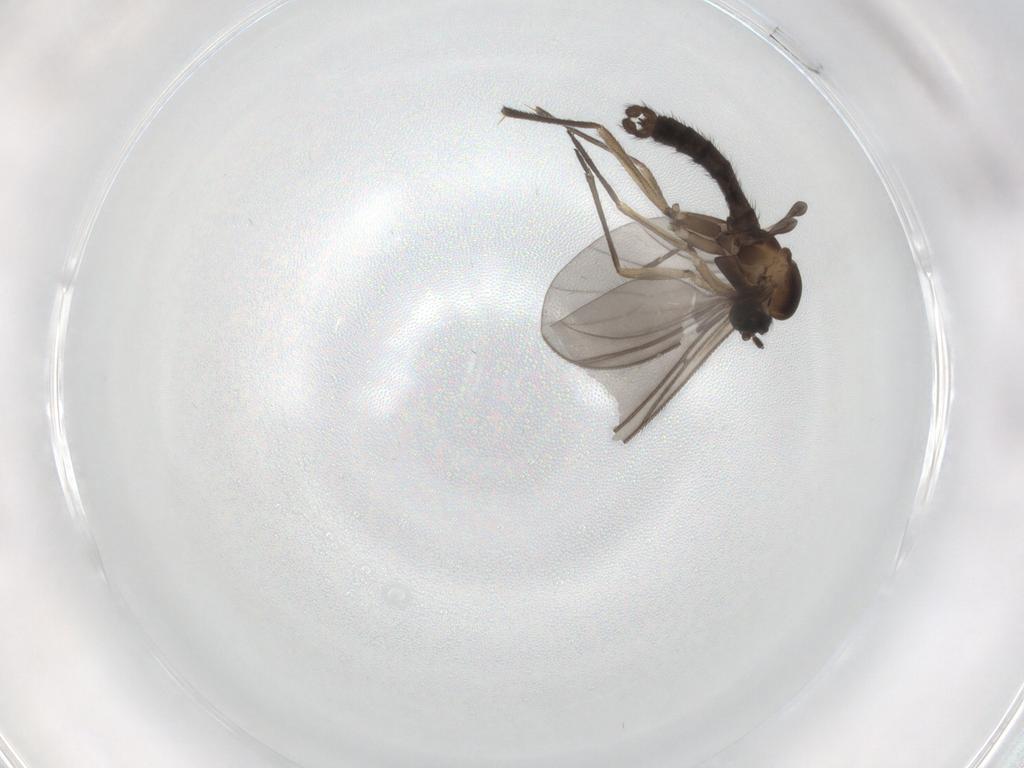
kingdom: Animalia
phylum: Arthropoda
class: Insecta
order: Diptera
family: Sciaridae
